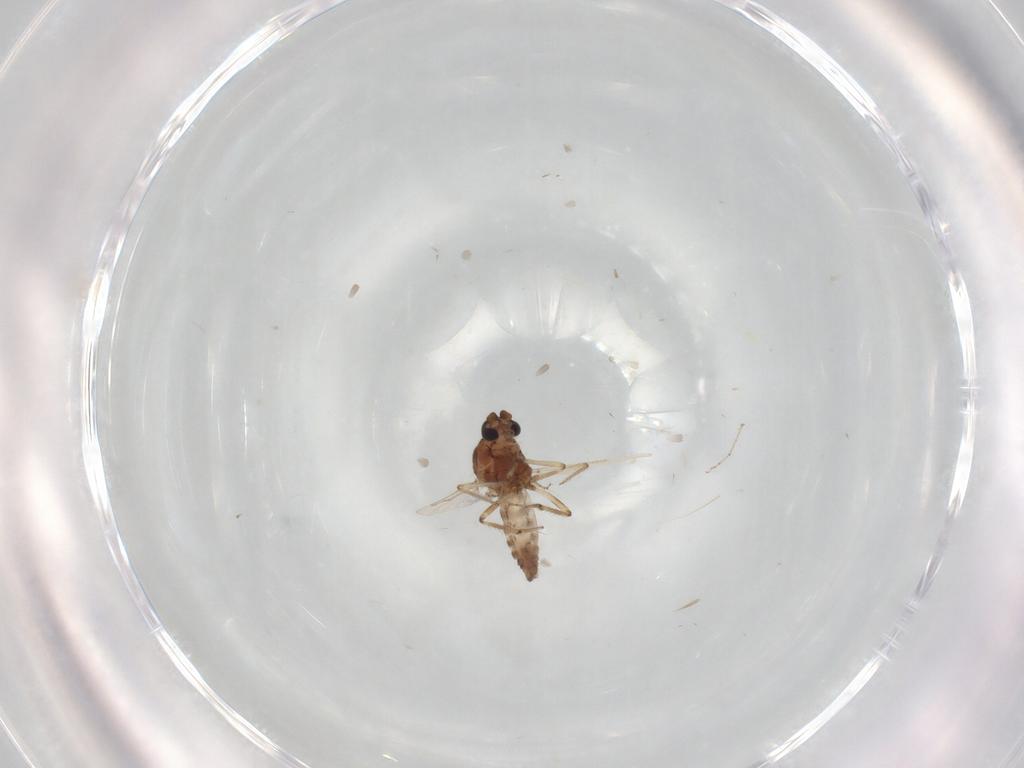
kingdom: Animalia
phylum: Arthropoda
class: Insecta
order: Diptera
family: Ceratopogonidae
